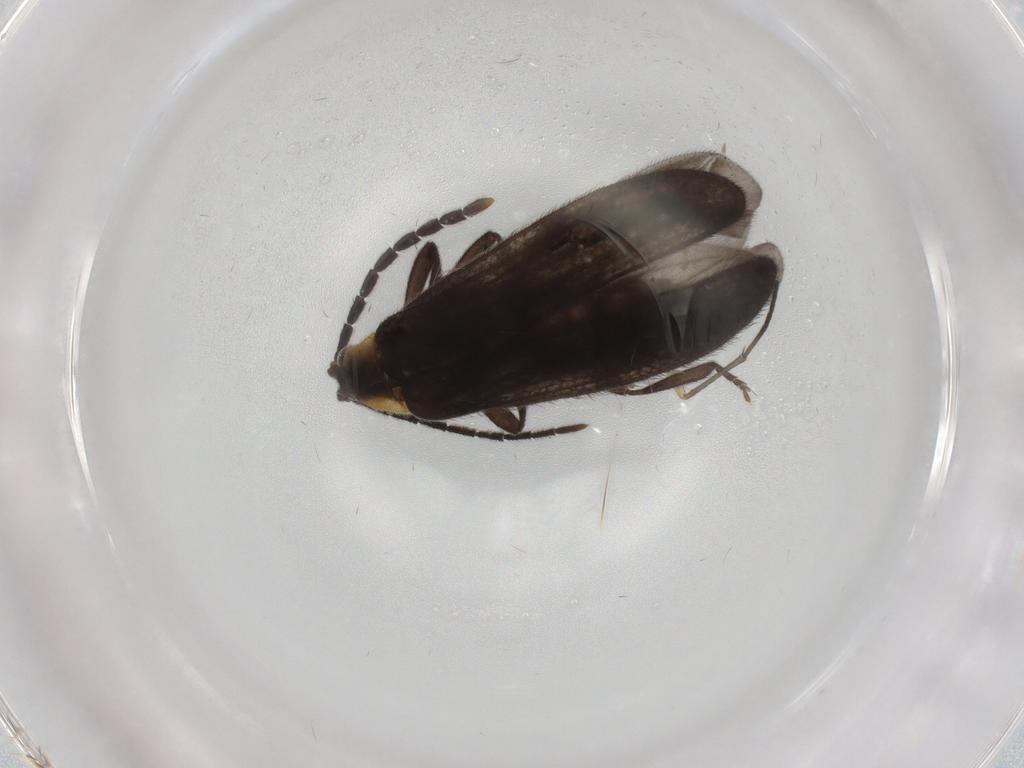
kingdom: Animalia
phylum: Arthropoda
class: Insecta
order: Coleoptera
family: Lycidae
